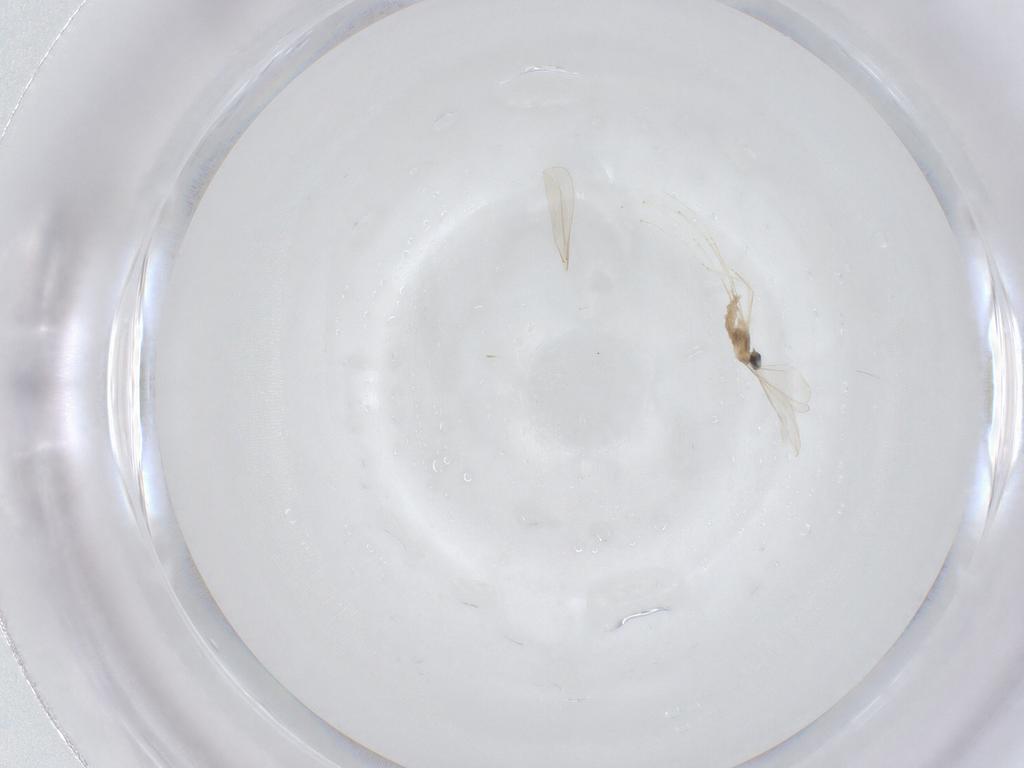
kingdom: Animalia
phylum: Arthropoda
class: Insecta
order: Diptera
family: Cecidomyiidae
